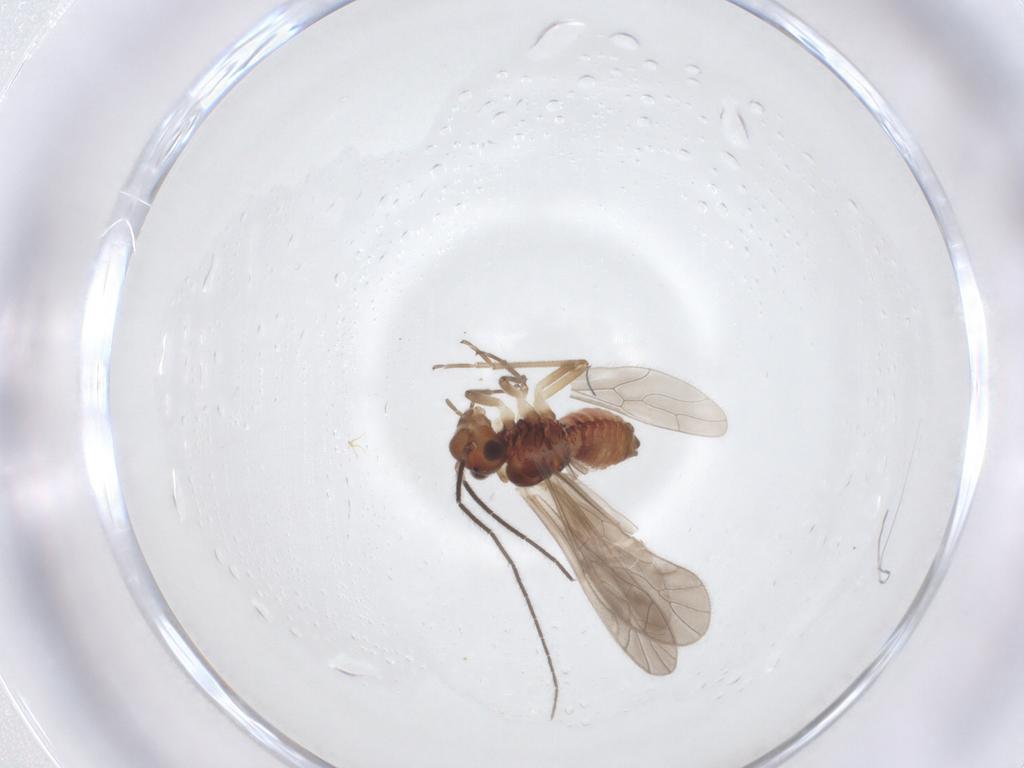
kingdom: Animalia
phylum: Arthropoda
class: Insecta
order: Psocodea
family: Caeciliusidae
